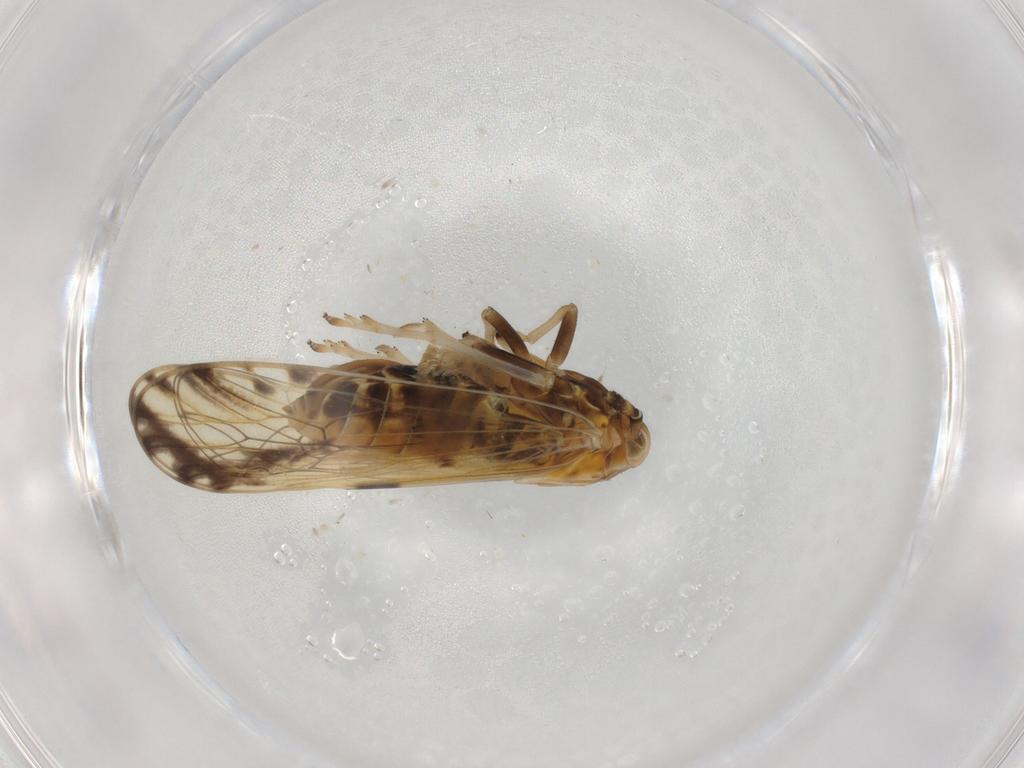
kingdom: Animalia
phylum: Arthropoda
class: Insecta
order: Hemiptera
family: Delphacidae
